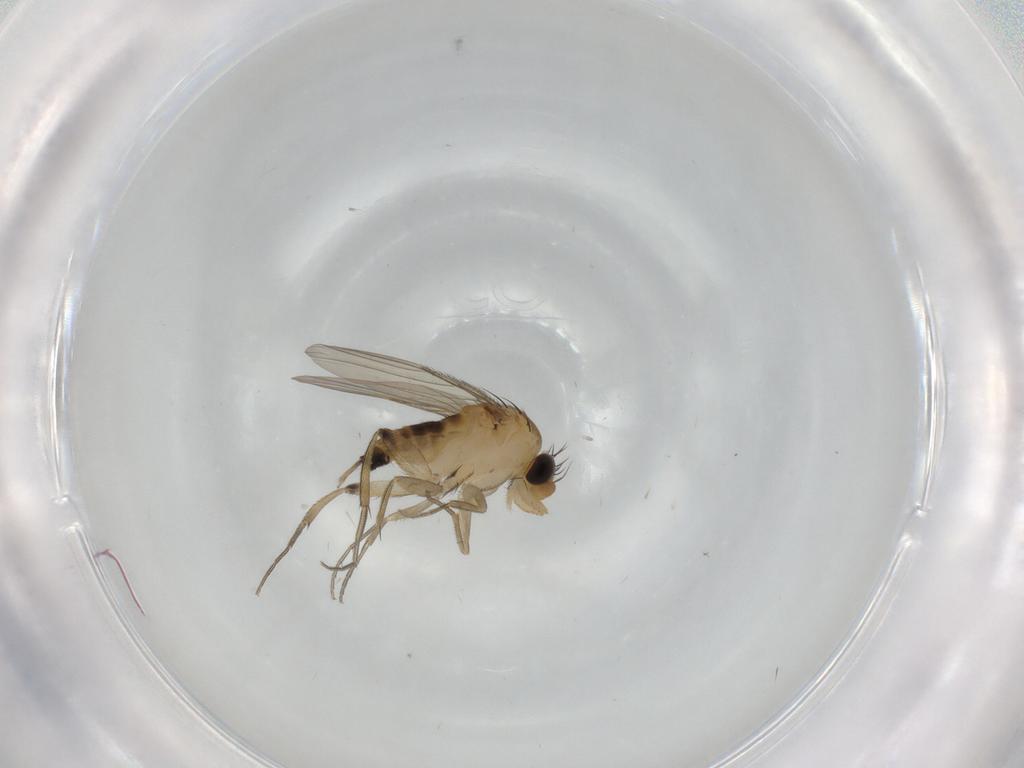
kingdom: Animalia
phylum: Arthropoda
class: Insecta
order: Diptera
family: Phoridae
